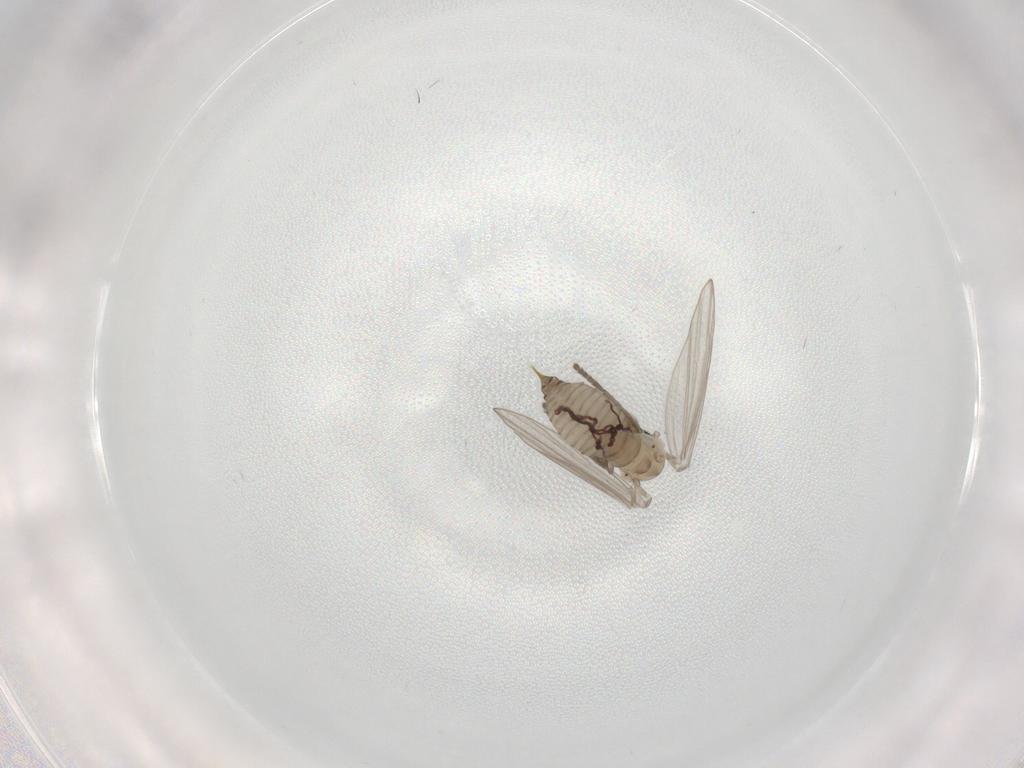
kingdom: Animalia
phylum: Arthropoda
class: Insecta
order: Diptera
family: Psychodidae
